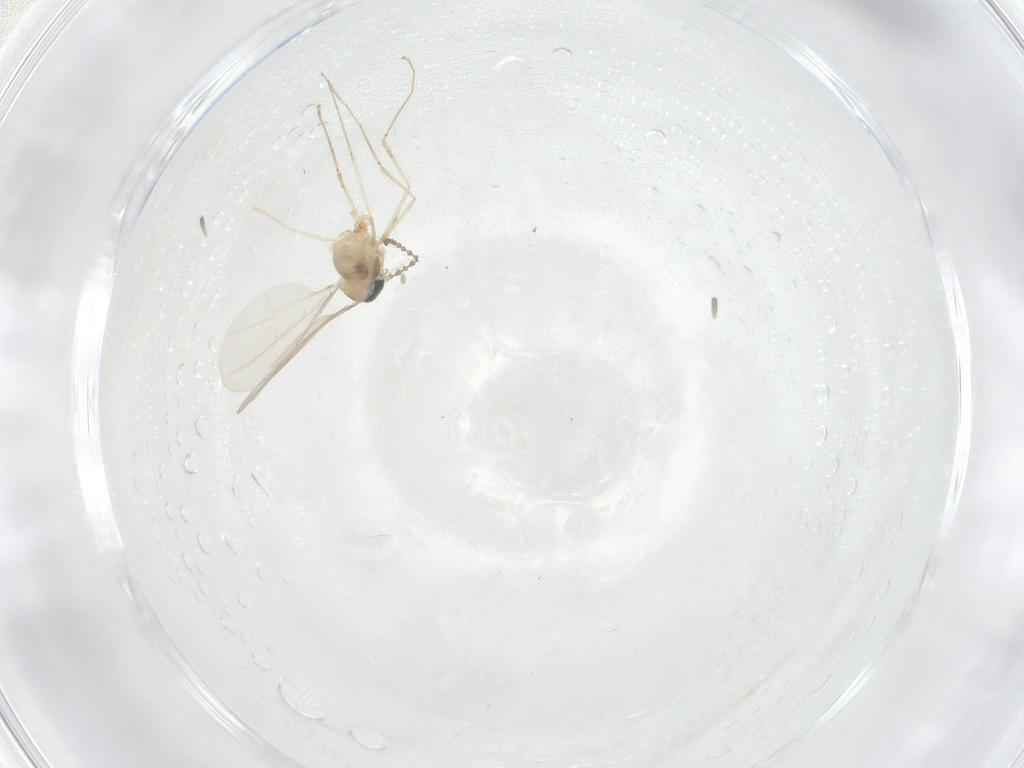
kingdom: Animalia
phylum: Arthropoda
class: Insecta
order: Diptera
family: Cecidomyiidae
